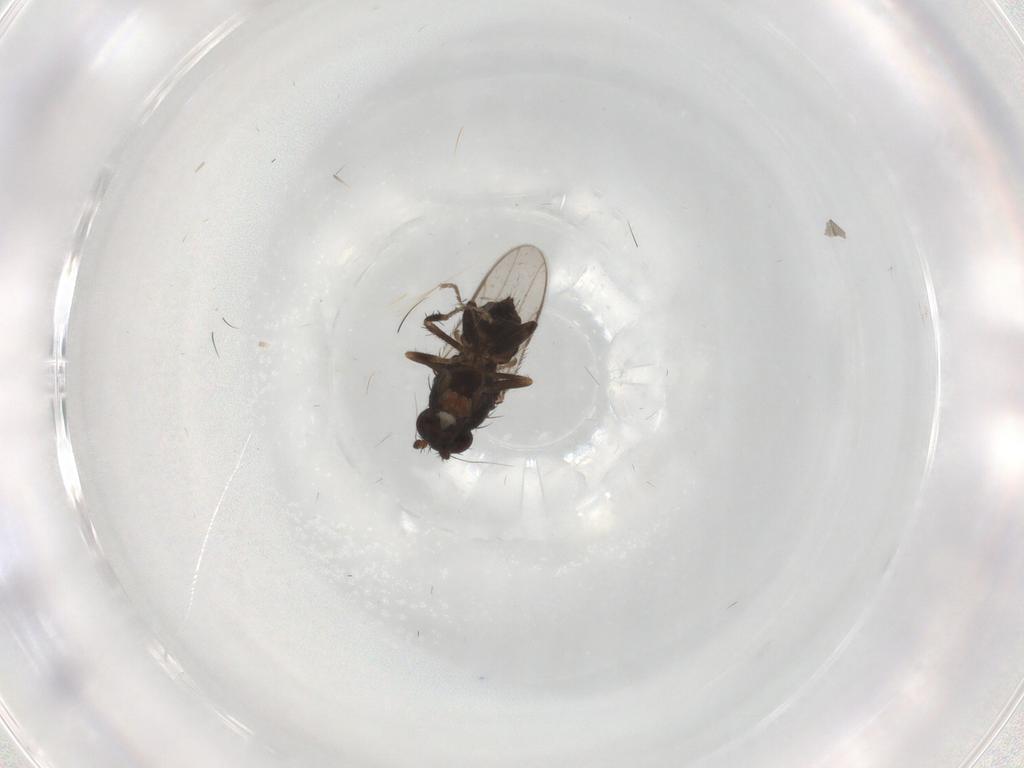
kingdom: Animalia
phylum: Arthropoda
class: Insecta
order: Diptera
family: Sphaeroceridae
